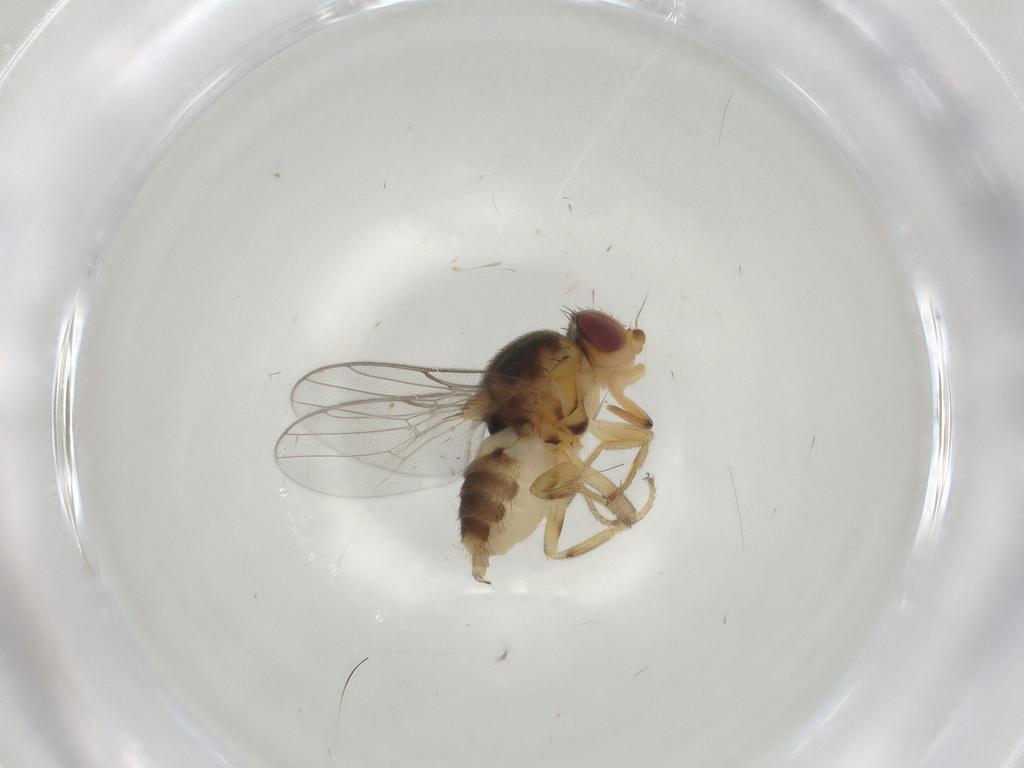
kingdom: Animalia
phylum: Arthropoda
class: Insecta
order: Diptera
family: Chloropidae
